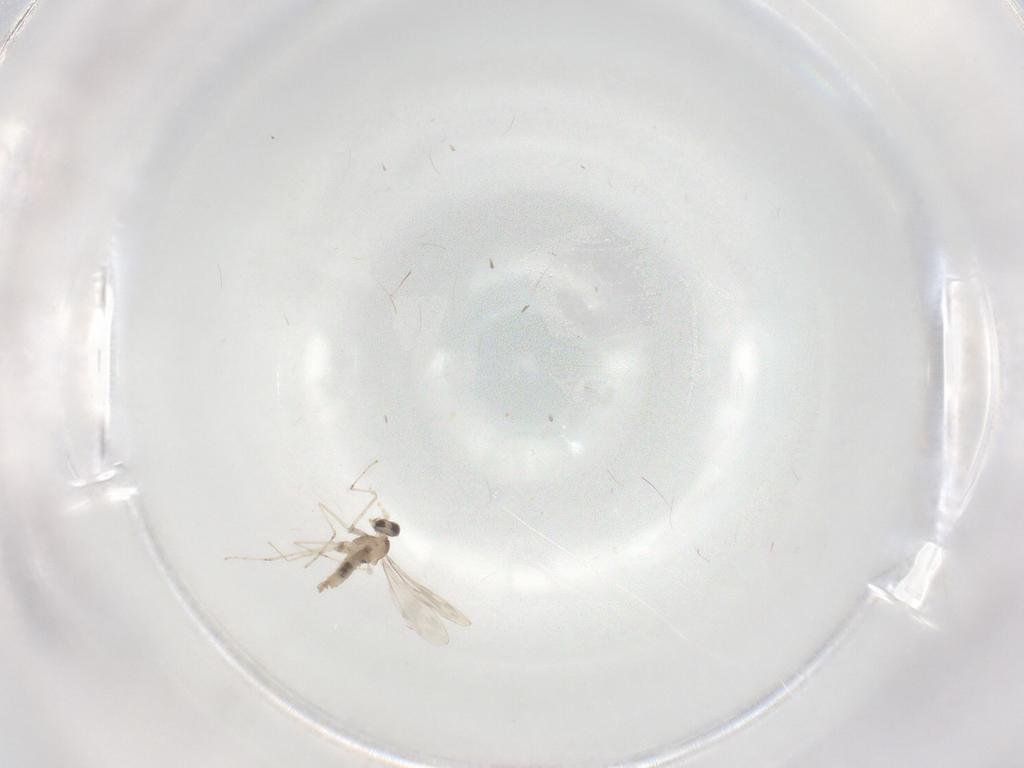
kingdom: Animalia
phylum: Arthropoda
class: Insecta
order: Diptera
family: Cecidomyiidae
